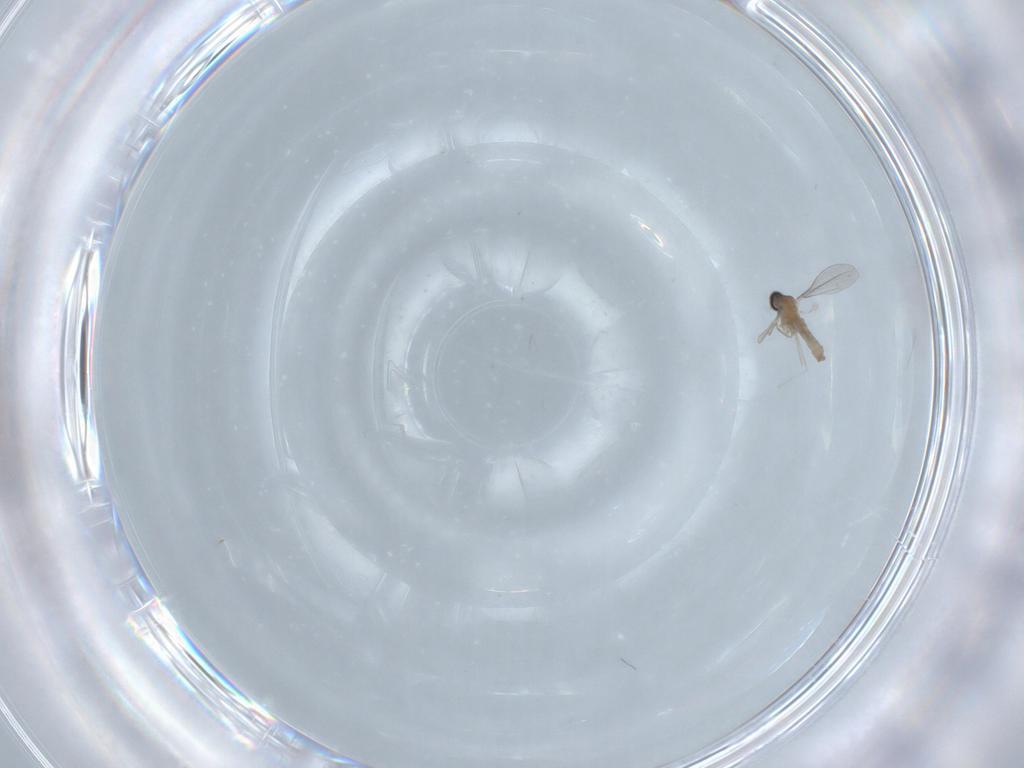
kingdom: Animalia
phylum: Arthropoda
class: Insecta
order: Diptera
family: Cecidomyiidae
